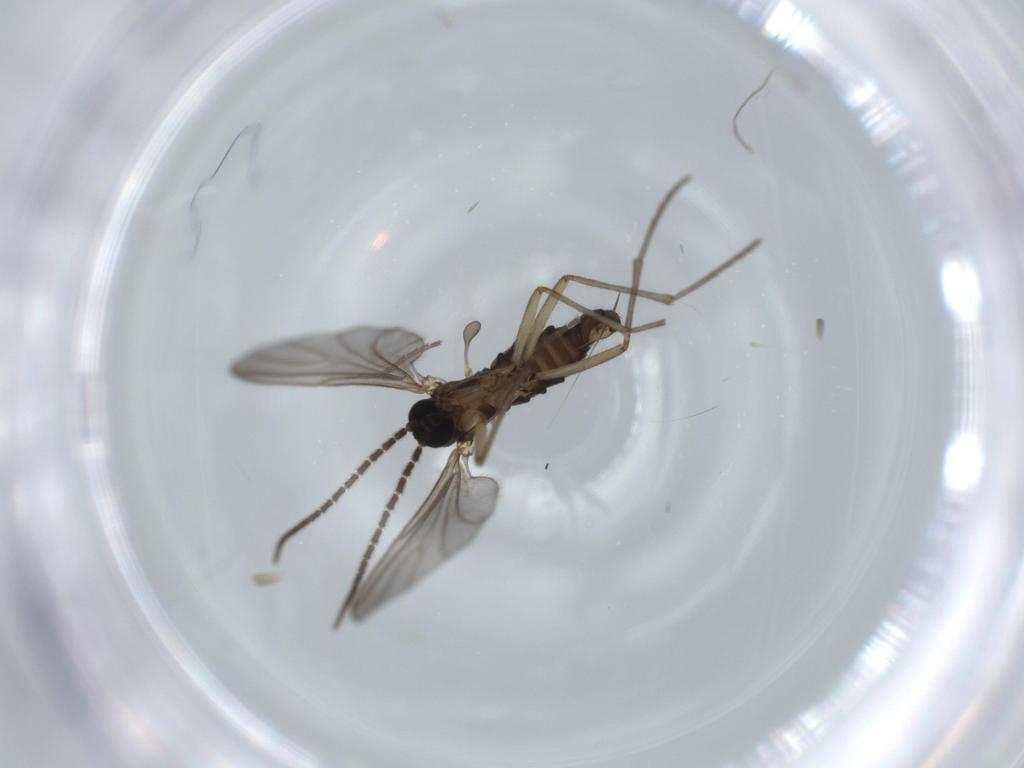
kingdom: Animalia
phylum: Arthropoda
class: Insecta
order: Diptera
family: Sciaridae
